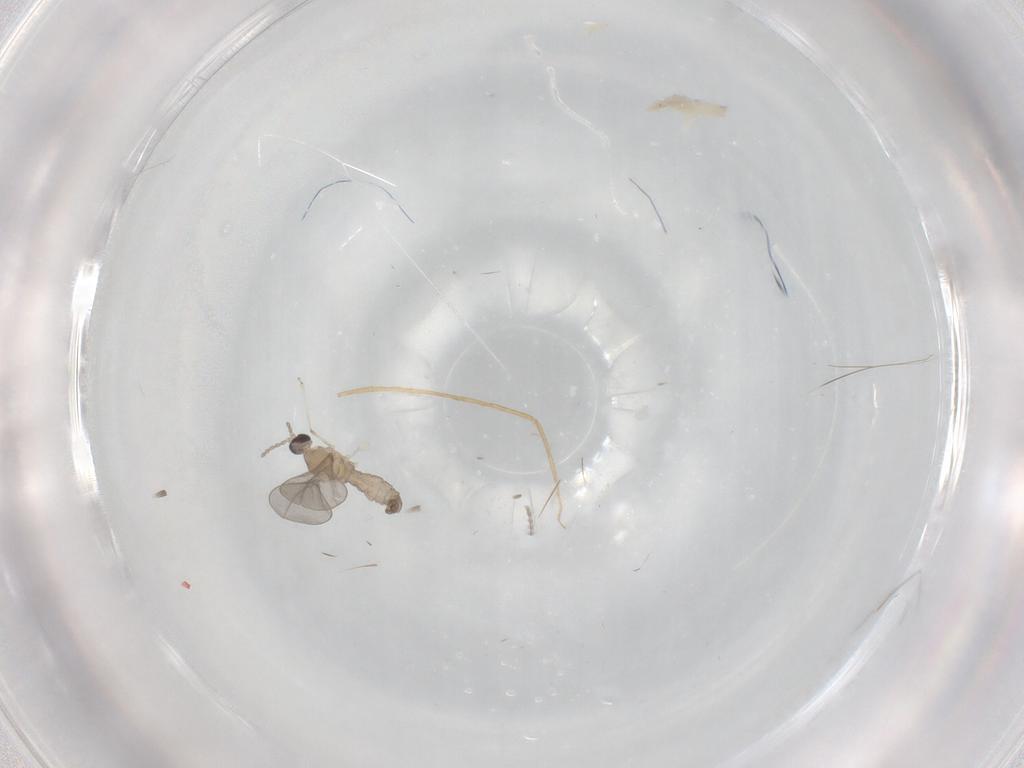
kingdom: Animalia
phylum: Arthropoda
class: Insecta
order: Diptera
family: Chironomidae
